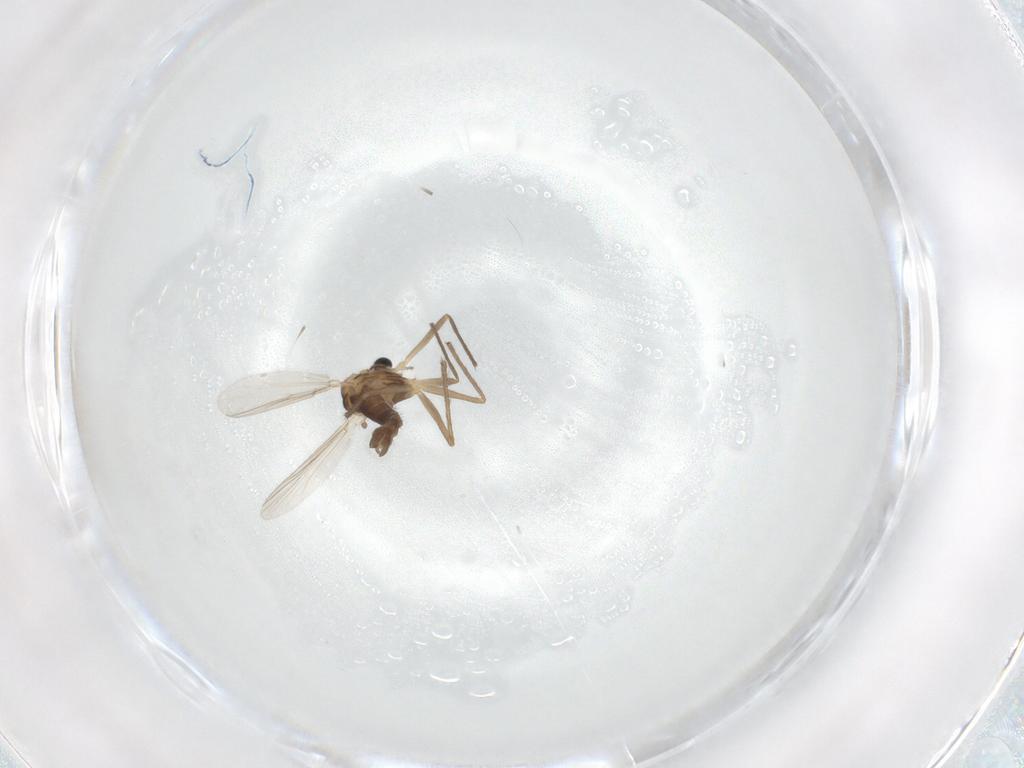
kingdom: Animalia
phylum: Arthropoda
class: Insecta
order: Diptera
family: Chironomidae
